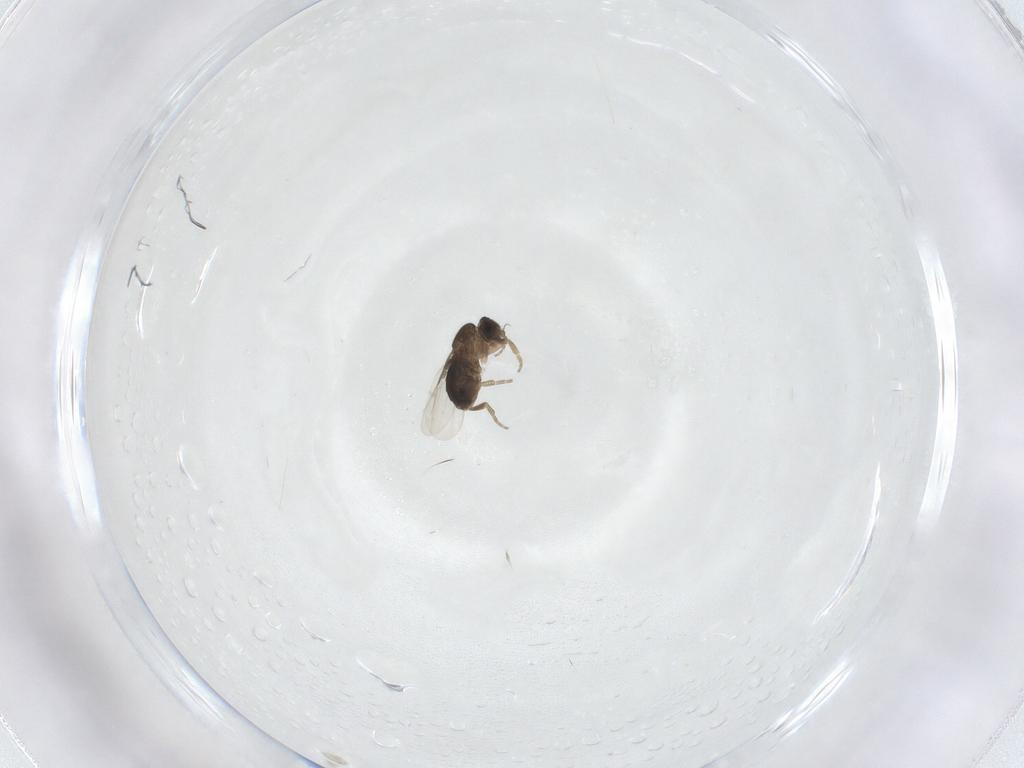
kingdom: Animalia
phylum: Arthropoda
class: Insecta
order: Diptera
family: Phoridae
